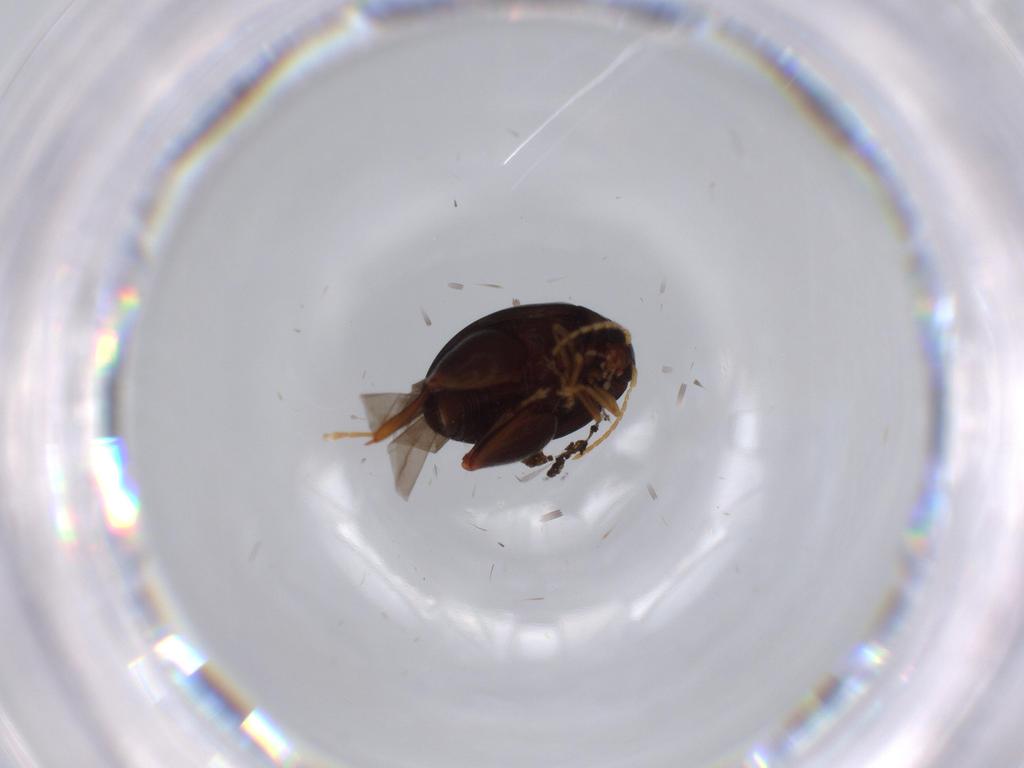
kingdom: Animalia
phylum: Arthropoda
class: Insecta
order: Coleoptera
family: Chrysomelidae
